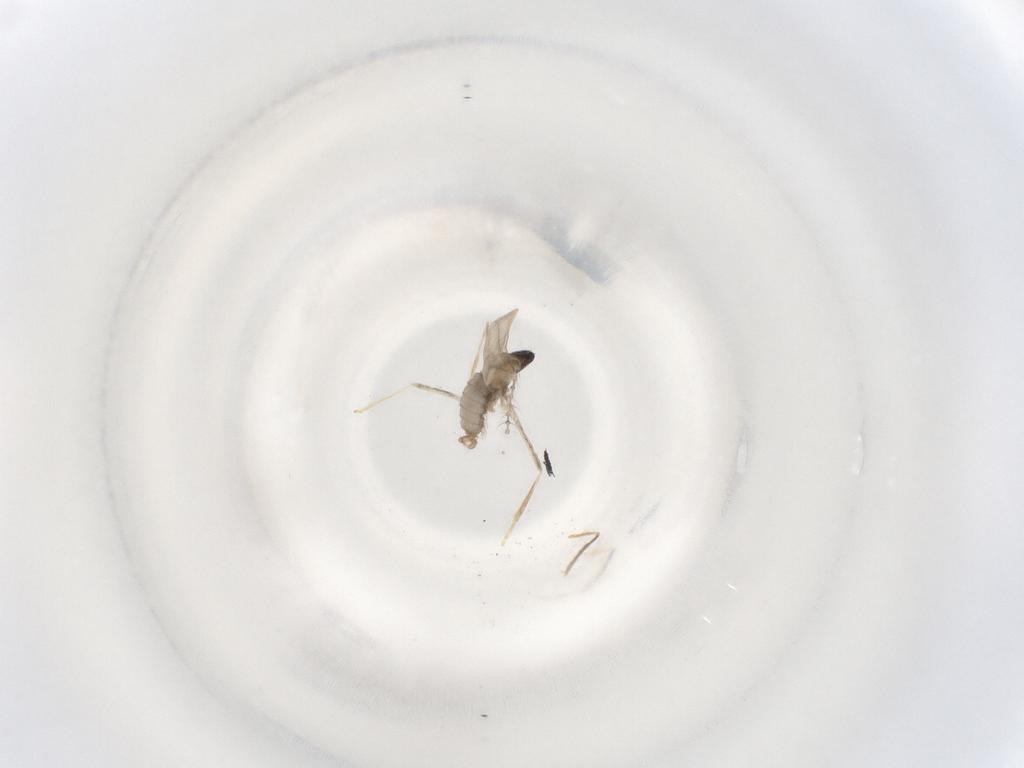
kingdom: Animalia
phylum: Arthropoda
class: Insecta
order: Diptera
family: Cecidomyiidae
